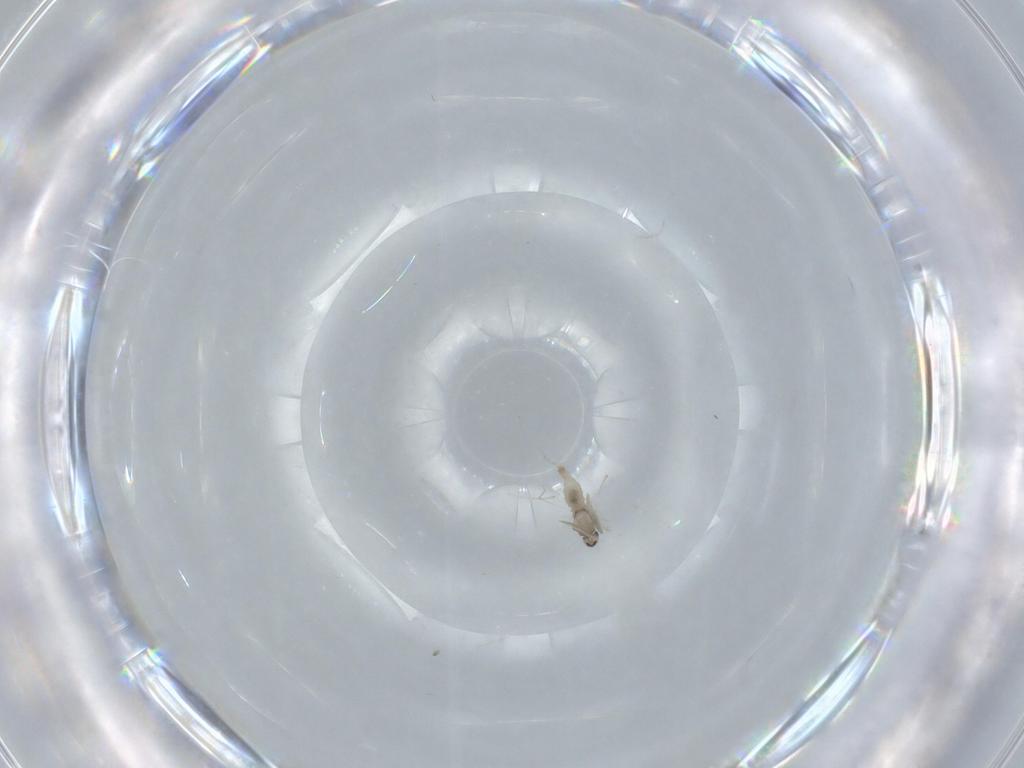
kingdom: Animalia
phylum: Arthropoda
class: Insecta
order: Diptera
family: Cecidomyiidae
